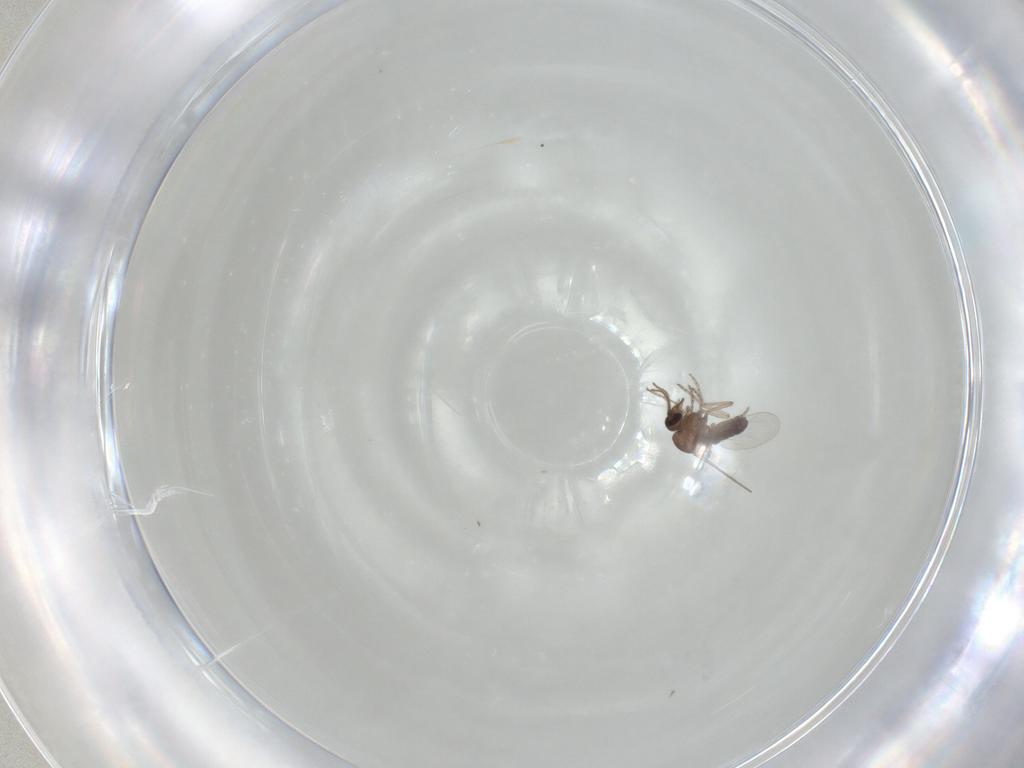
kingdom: Animalia
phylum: Arthropoda
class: Insecta
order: Diptera
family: Ceratopogonidae
